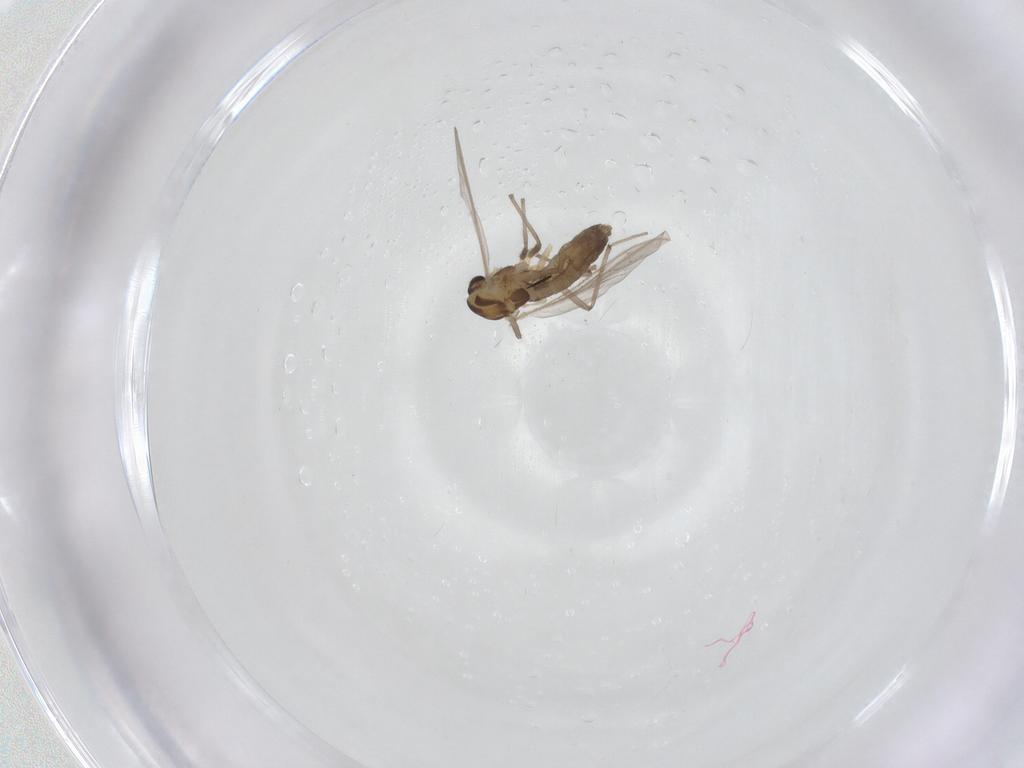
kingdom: Animalia
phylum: Arthropoda
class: Insecta
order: Diptera
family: Chironomidae
